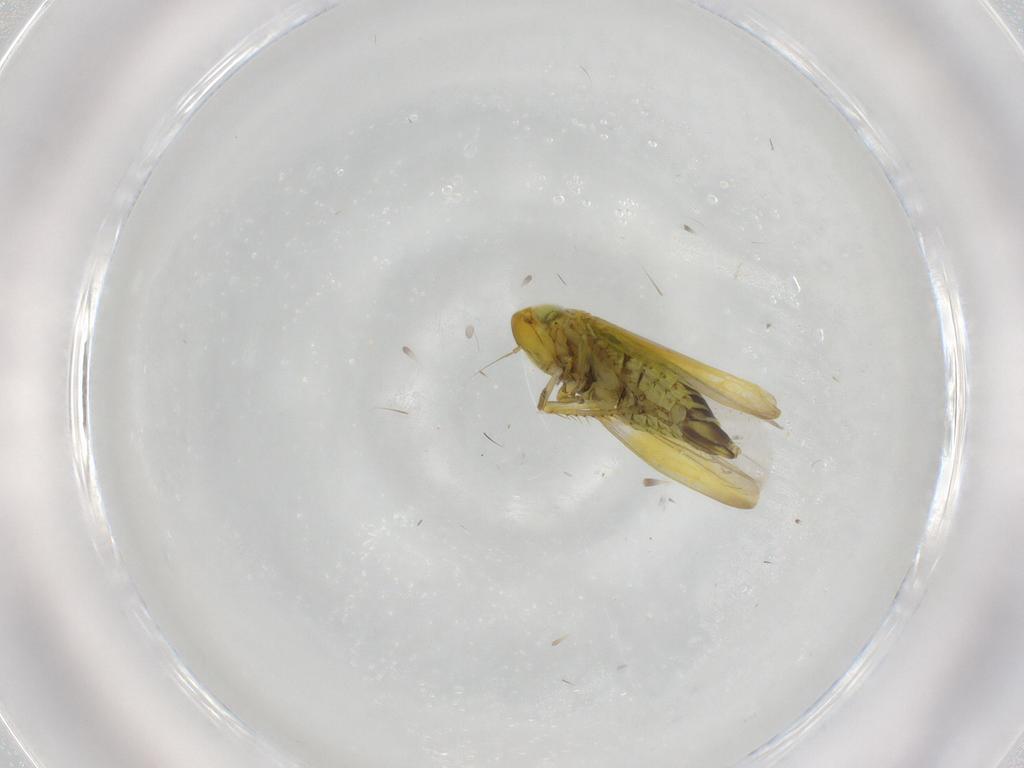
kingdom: Animalia
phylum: Arthropoda
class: Insecta
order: Hemiptera
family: Cicadellidae
